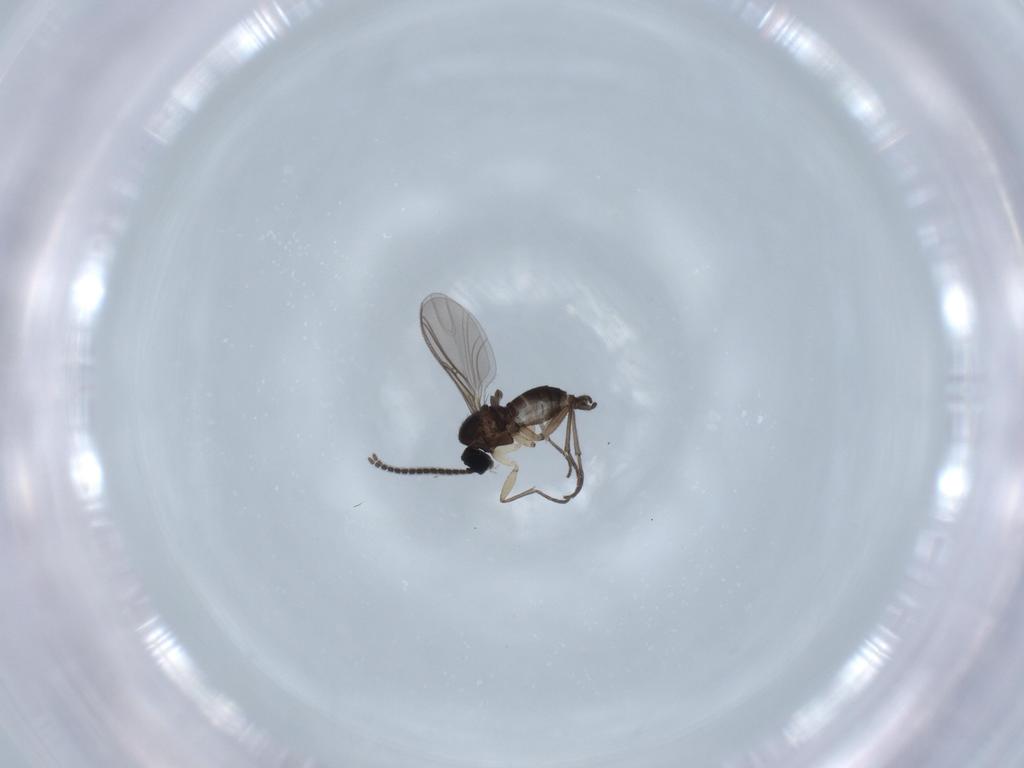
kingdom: Animalia
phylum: Arthropoda
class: Insecta
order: Diptera
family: Sciaridae
